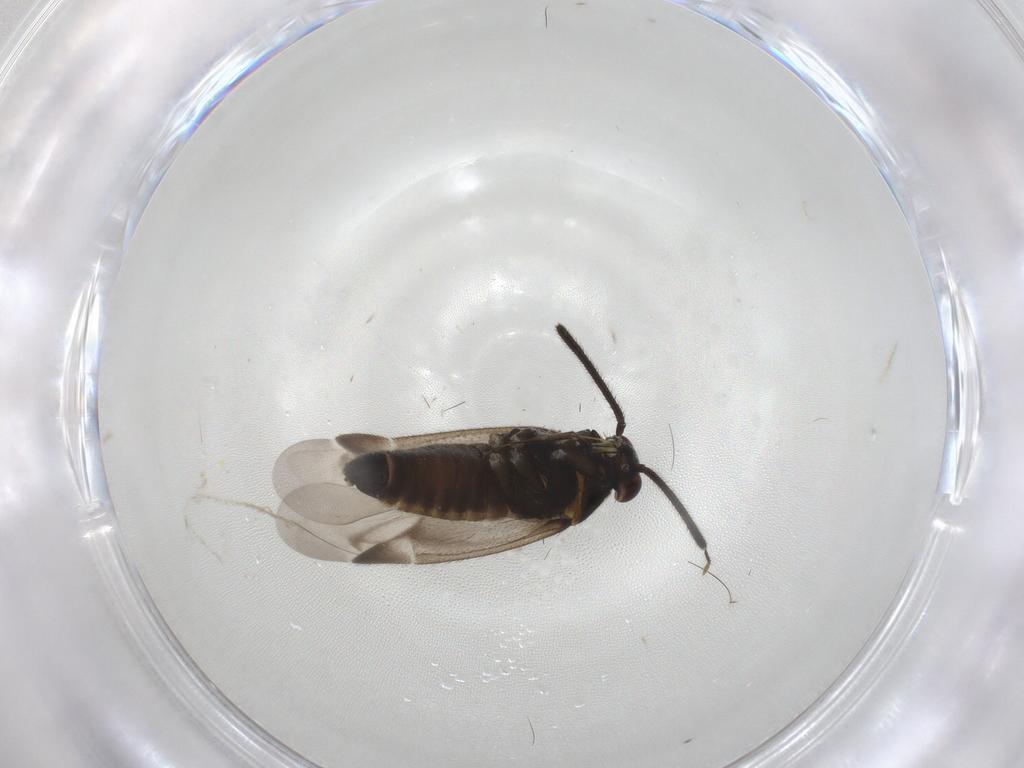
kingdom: Animalia
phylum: Arthropoda
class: Insecta
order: Hemiptera
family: Miridae
